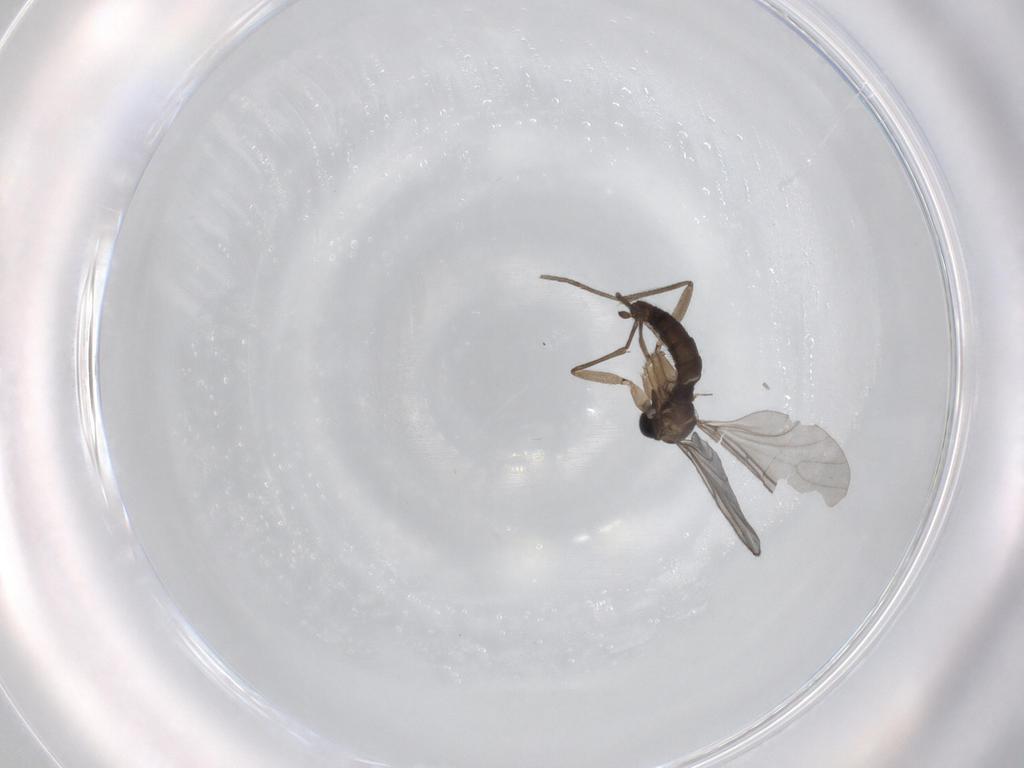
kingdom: Animalia
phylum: Arthropoda
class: Insecta
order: Diptera
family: Sciaridae
